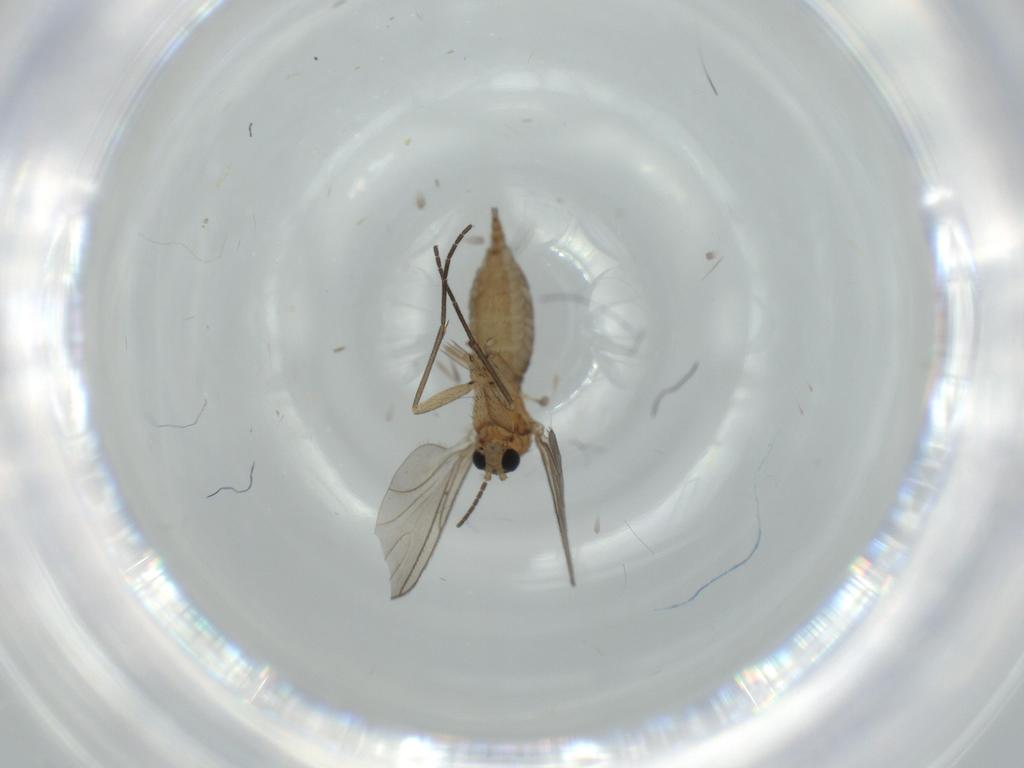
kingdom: Animalia
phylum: Arthropoda
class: Insecta
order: Diptera
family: Sciaridae
